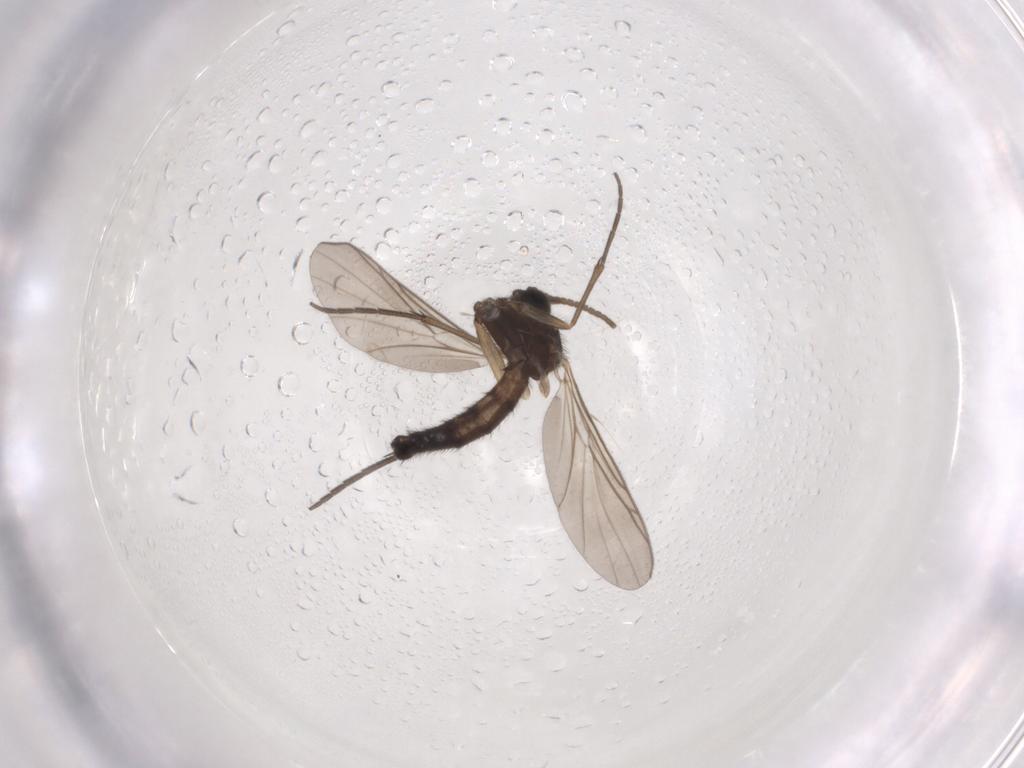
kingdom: Animalia
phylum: Arthropoda
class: Insecta
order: Diptera
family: Keroplatidae
